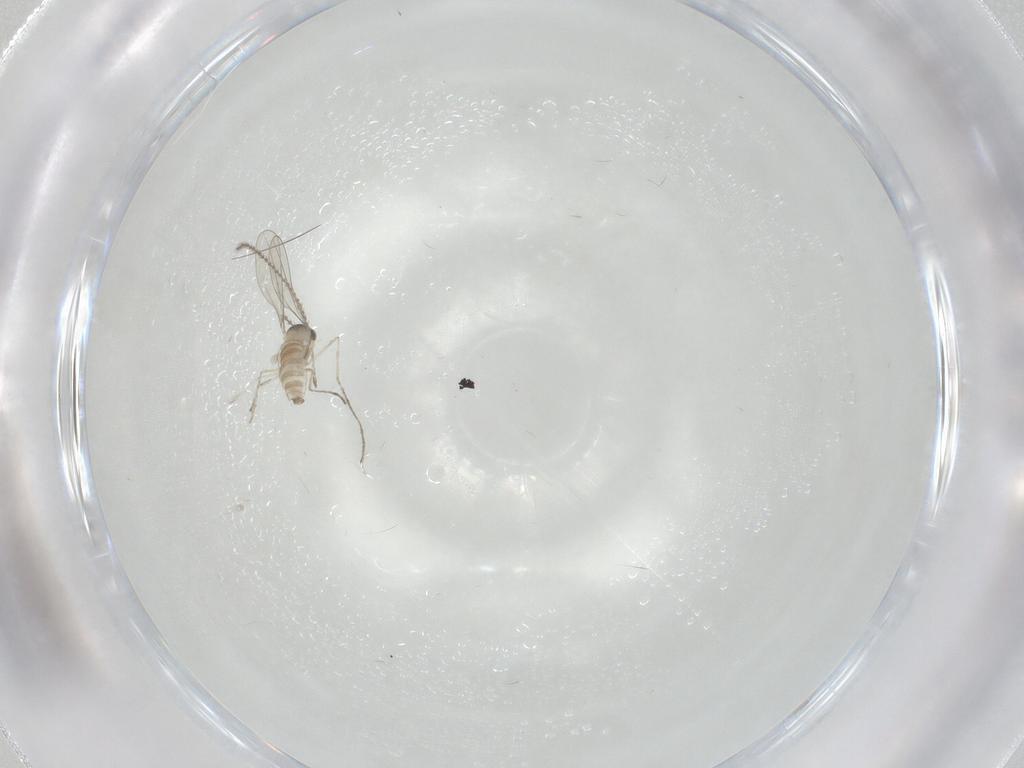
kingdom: Animalia
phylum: Arthropoda
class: Insecta
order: Diptera
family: Cecidomyiidae
